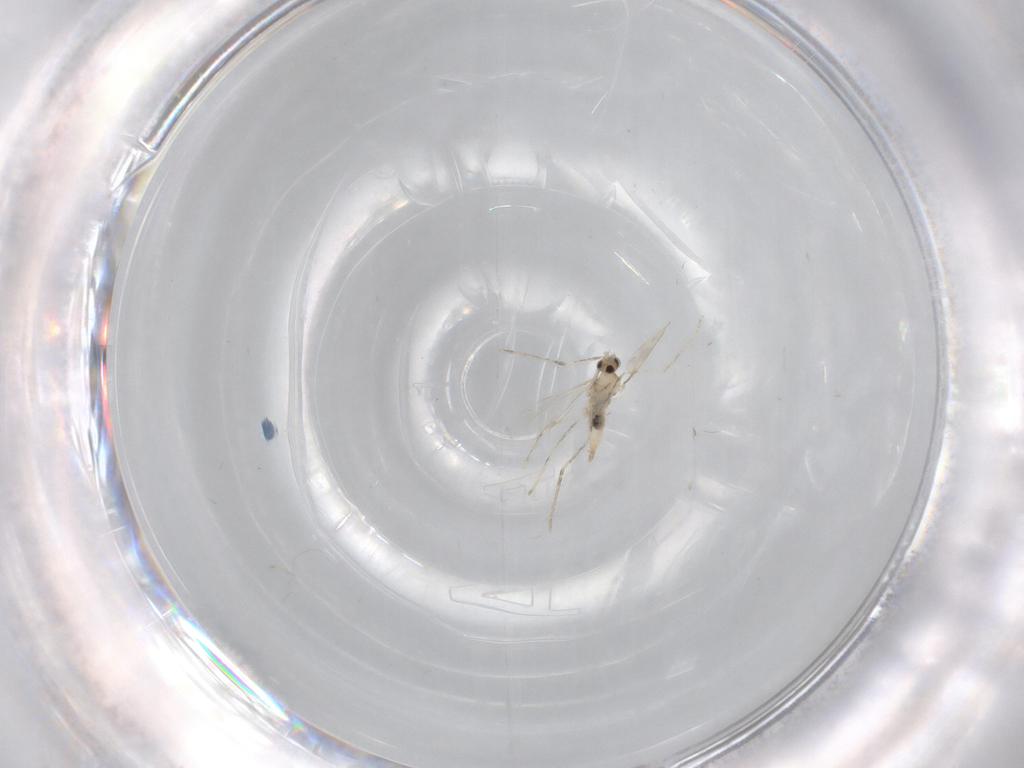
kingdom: Animalia
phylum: Arthropoda
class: Insecta
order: Diptera
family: Cecidomyiidae
